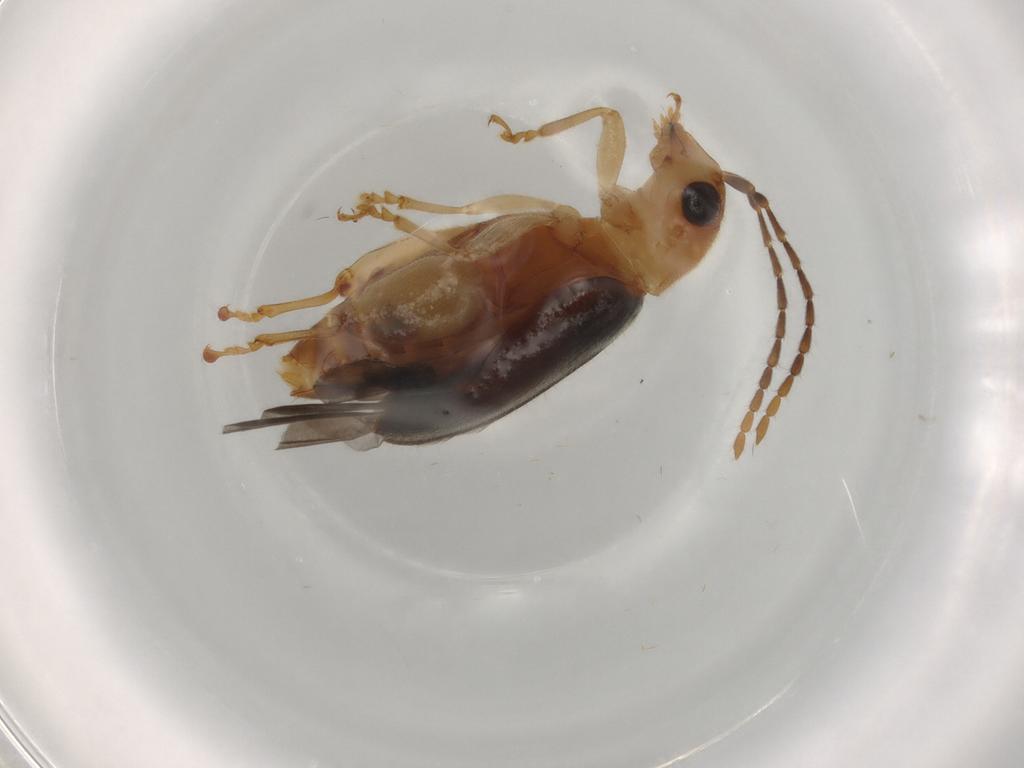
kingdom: Animalia
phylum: Arthropoda
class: Insecta
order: Coleoptera
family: Chrysomelidae
